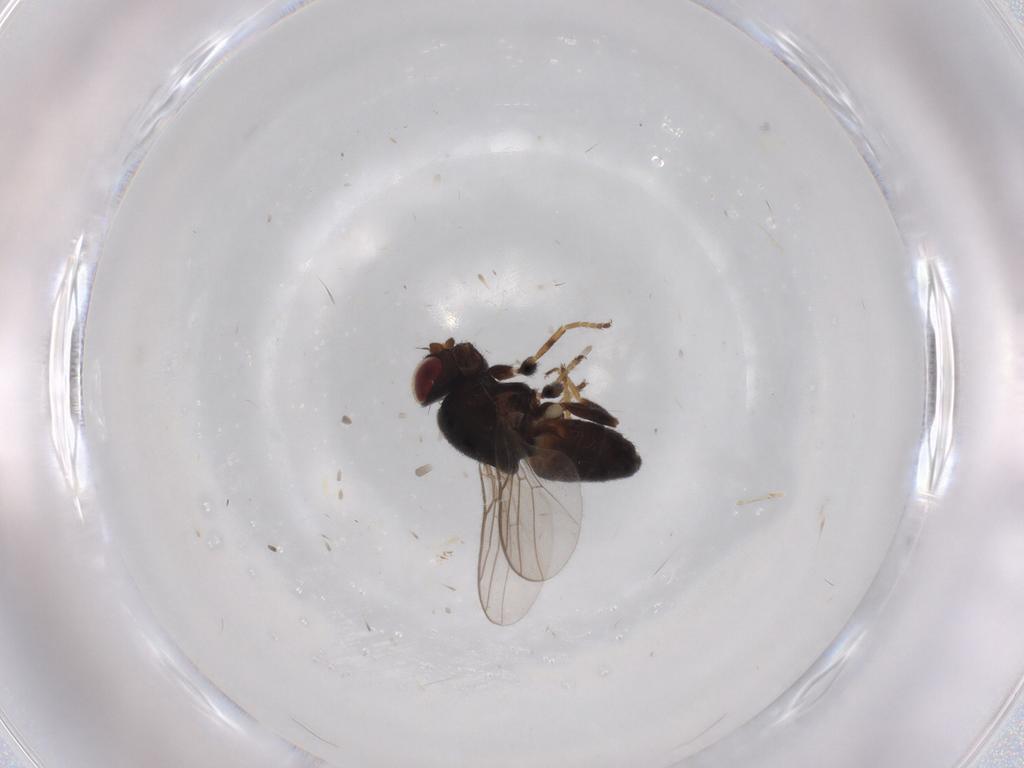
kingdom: Animalia
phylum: Arthropoda
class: Insecta
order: Diptera
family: Chloropidae
